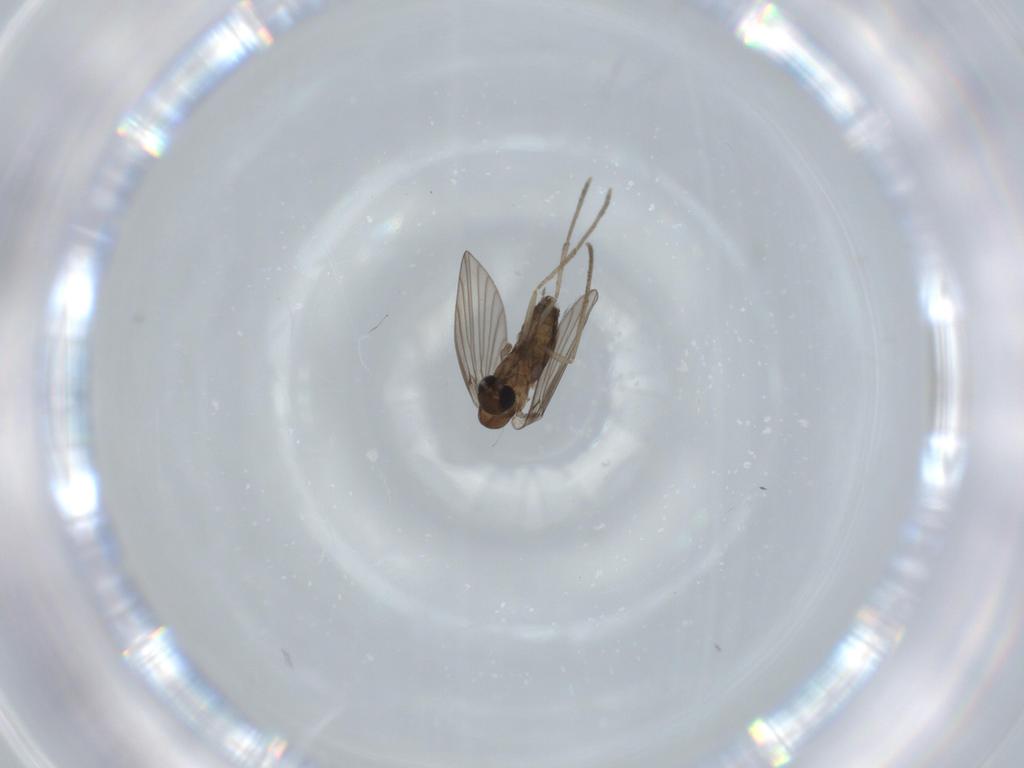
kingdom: Animalia
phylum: Arthropoda
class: Insecta
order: Diptera
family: Psychodidae
